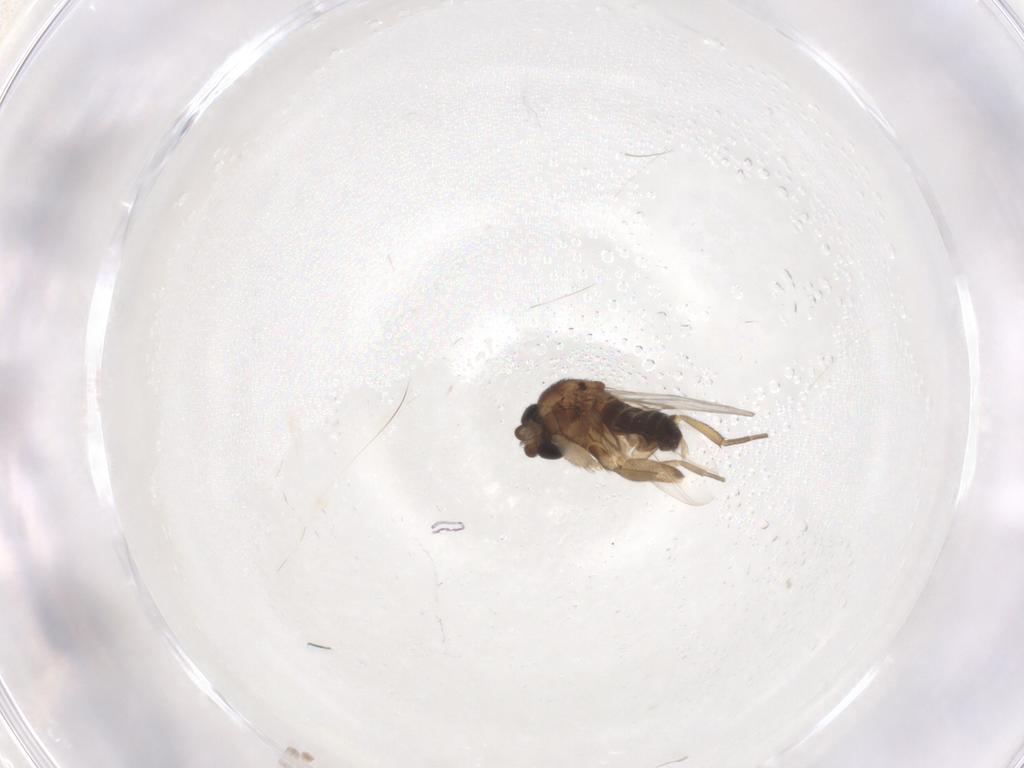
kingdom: Animalia
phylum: Arthropoda
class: Insecta
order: Diptera
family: Phoridae
